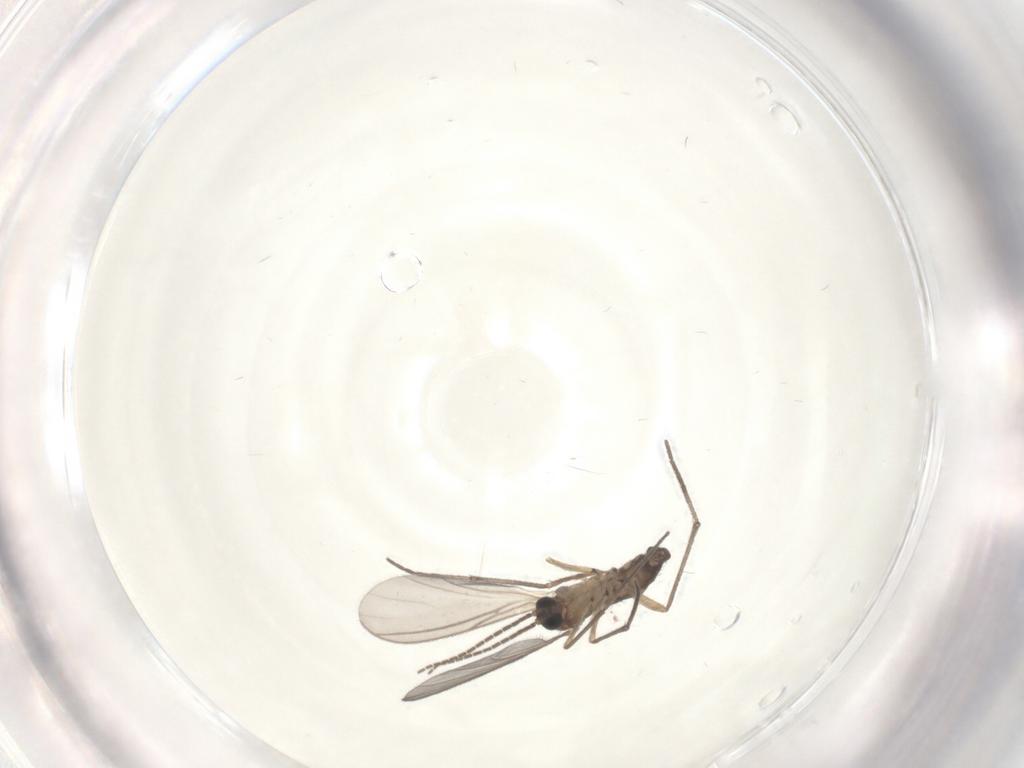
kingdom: Animalia
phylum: Arthropoda
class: Insecta
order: Diptera
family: Sciaridae
